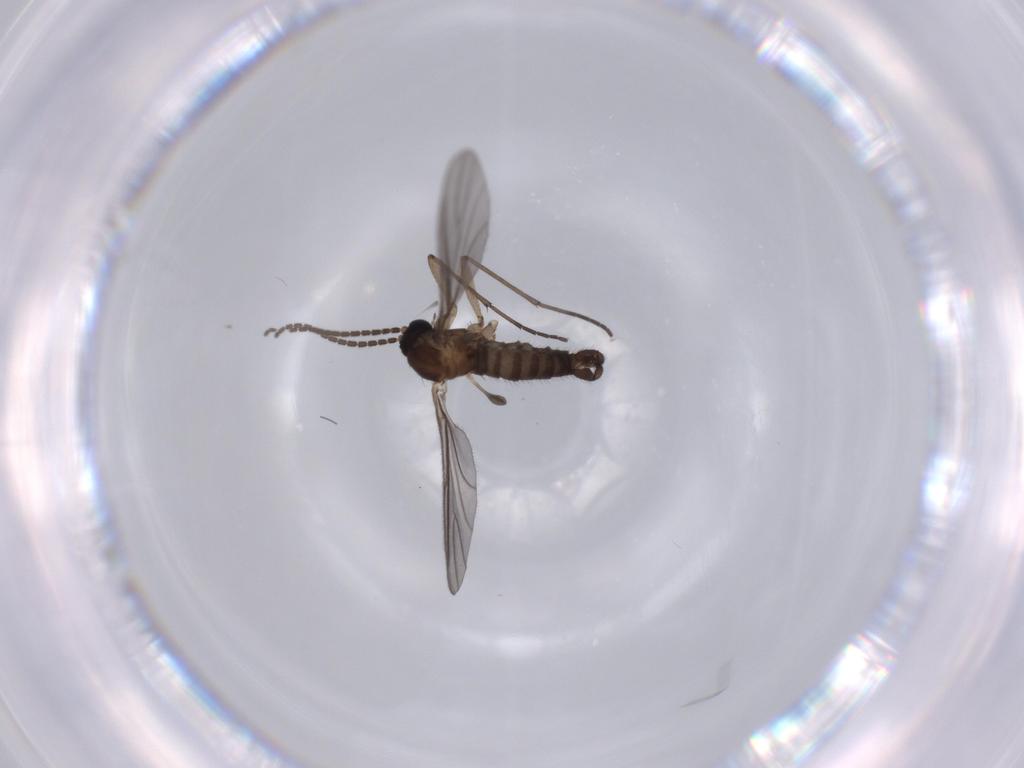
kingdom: Animalia
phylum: Arthropoda
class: Insecta
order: Diptera
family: Sciaridae
